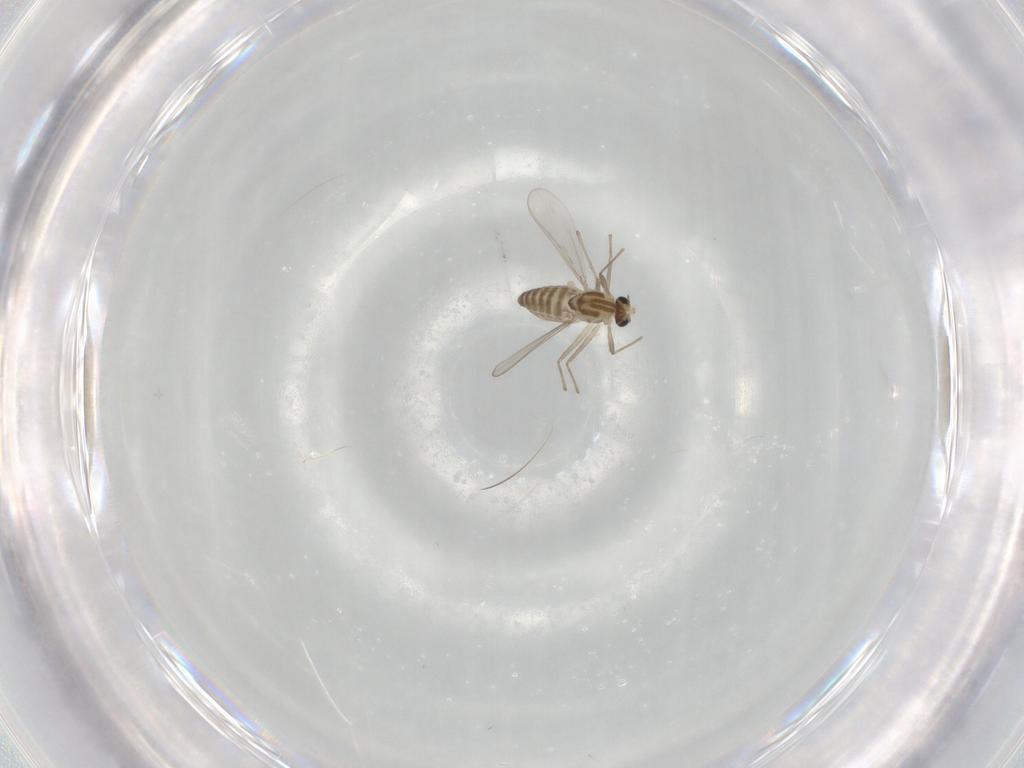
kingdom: Animalia
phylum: Arthropoda
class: Insecta
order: Diptera
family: Chironomidae
